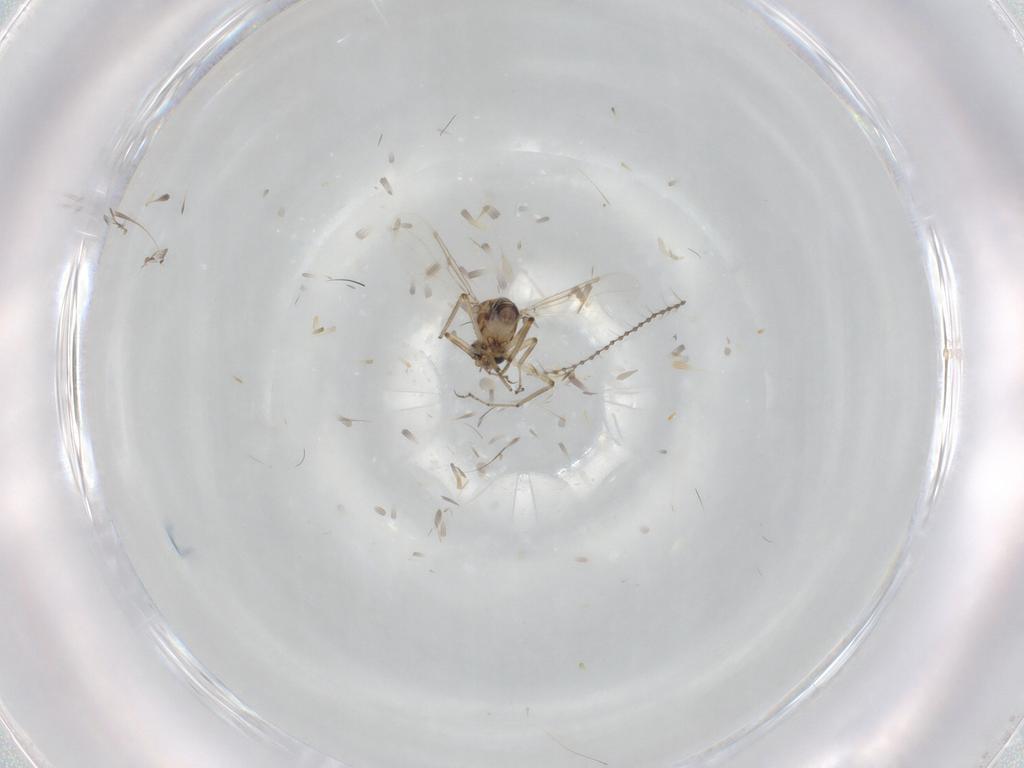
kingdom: Animalia
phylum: Arthropoda
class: Insecta
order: Diptera
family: Ceratopogonidae
